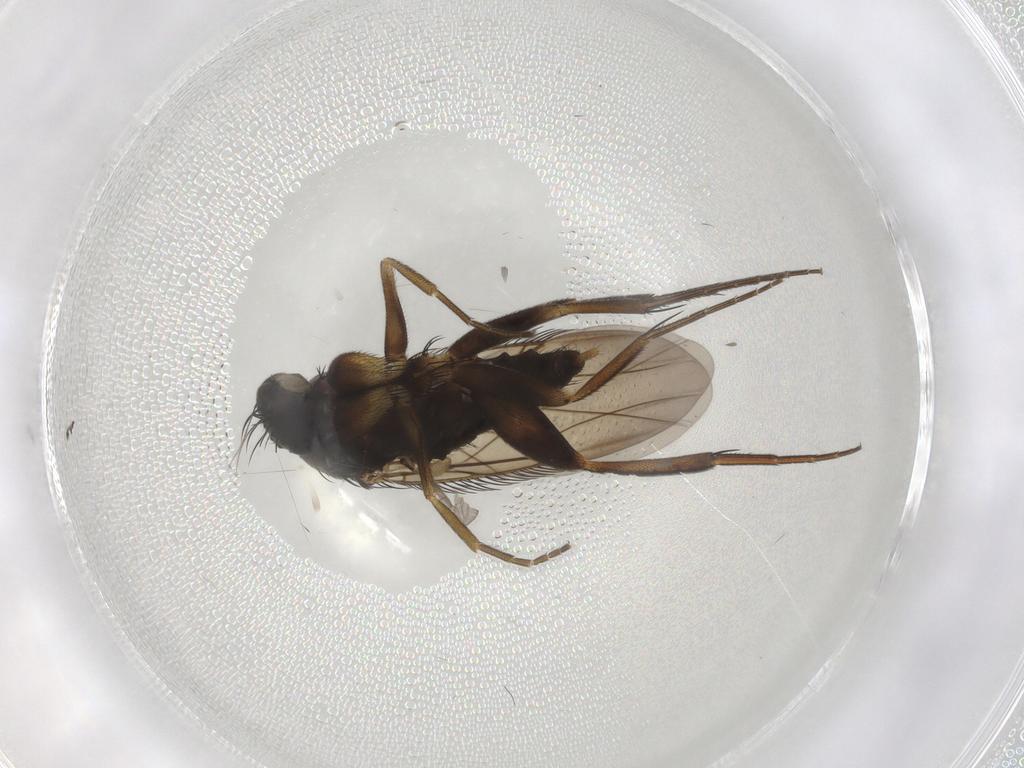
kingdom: Animalia
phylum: Arthropoda
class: Insecta
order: Diptera
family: Phoridae
